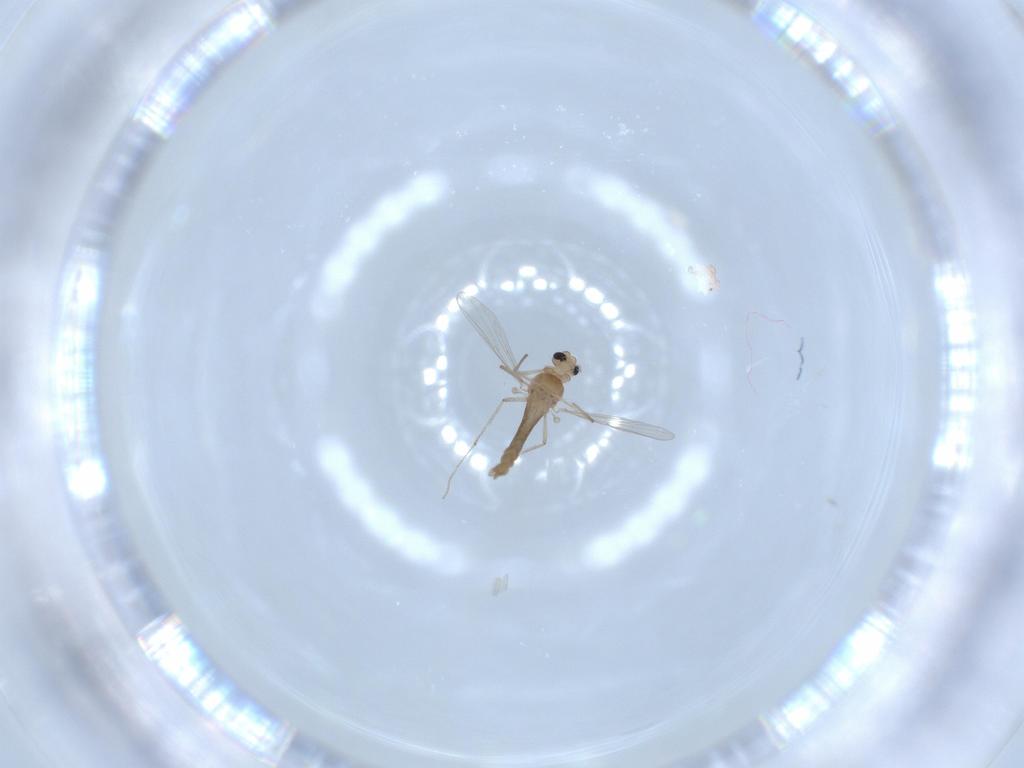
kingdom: Animalia
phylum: Arthropoda
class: Insecta
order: Diptera
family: Chironomidae
